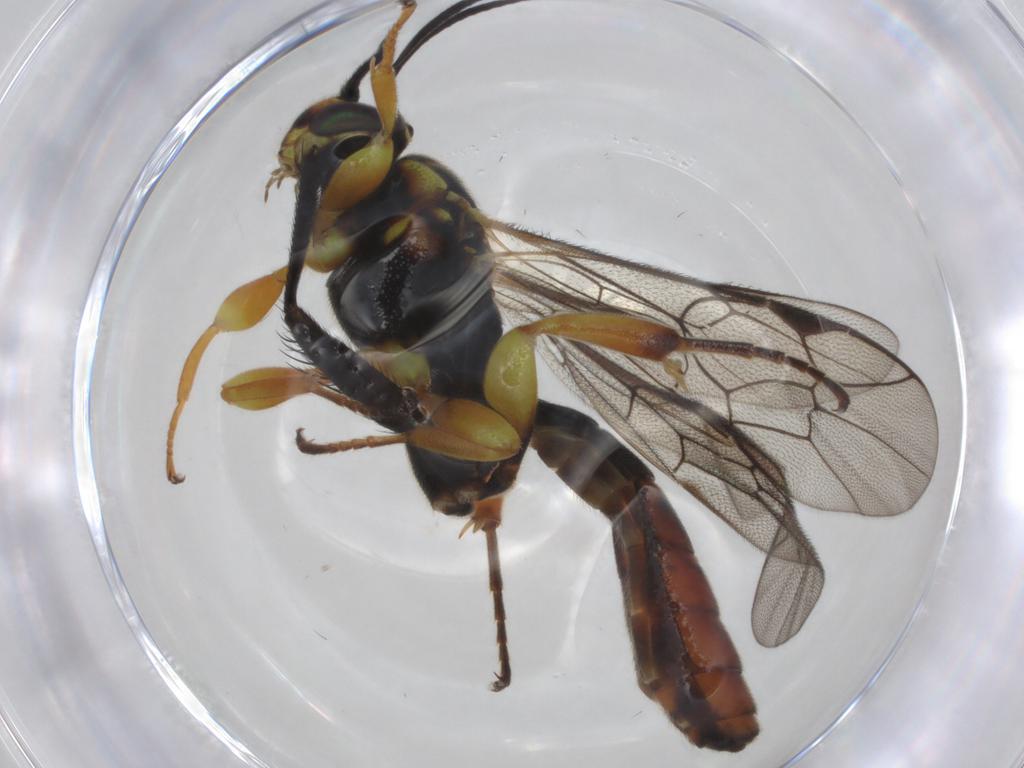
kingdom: Animalia
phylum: Arthropoda
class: Insecta
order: Hymenoptera
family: Ichneumonidae
